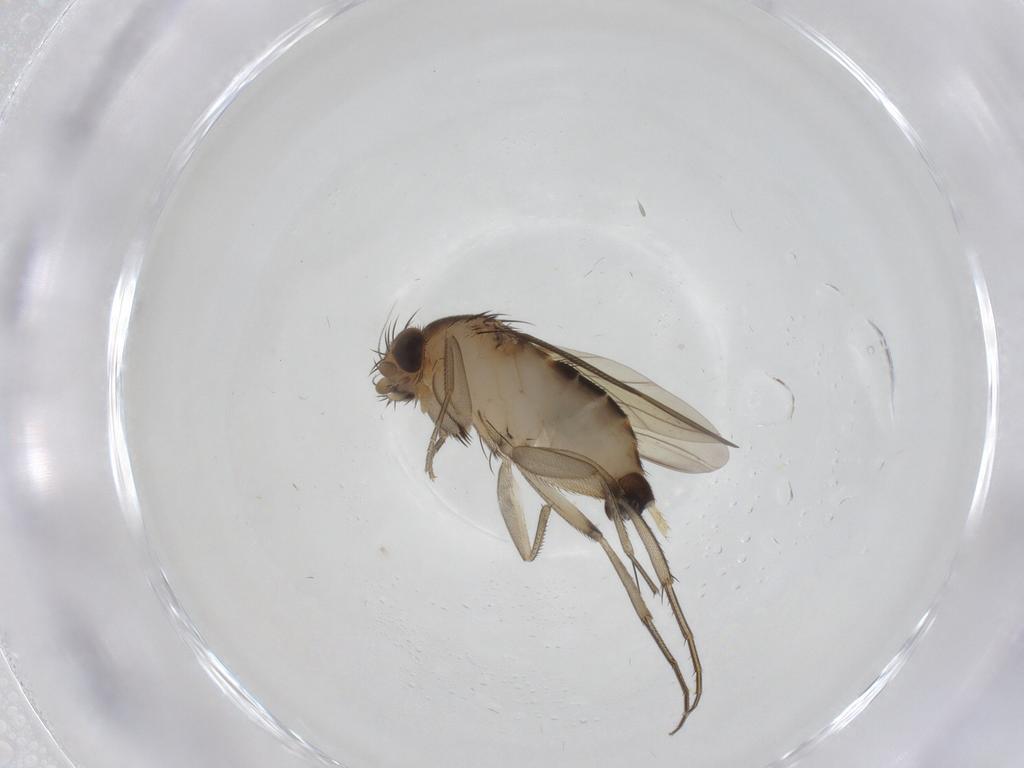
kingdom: Animalia
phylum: Arthropoda
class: Insecta
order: Diptera
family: Phoridae
